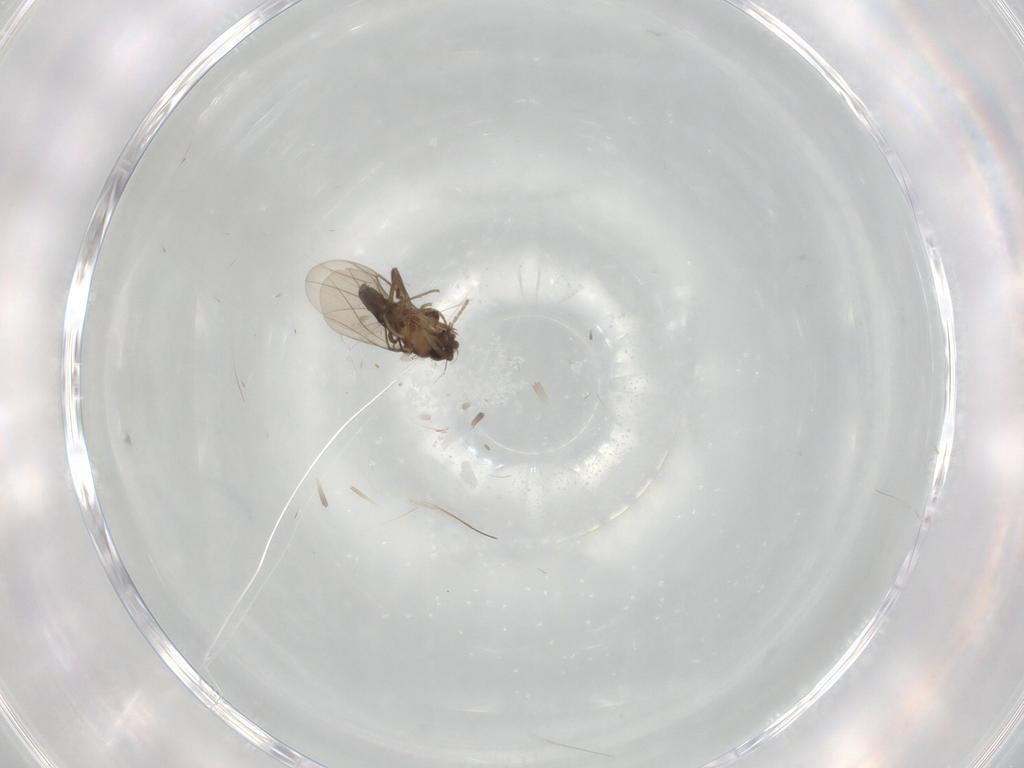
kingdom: Animalia
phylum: Arthropoda
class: Insecta
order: Diptera
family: Phoridae
